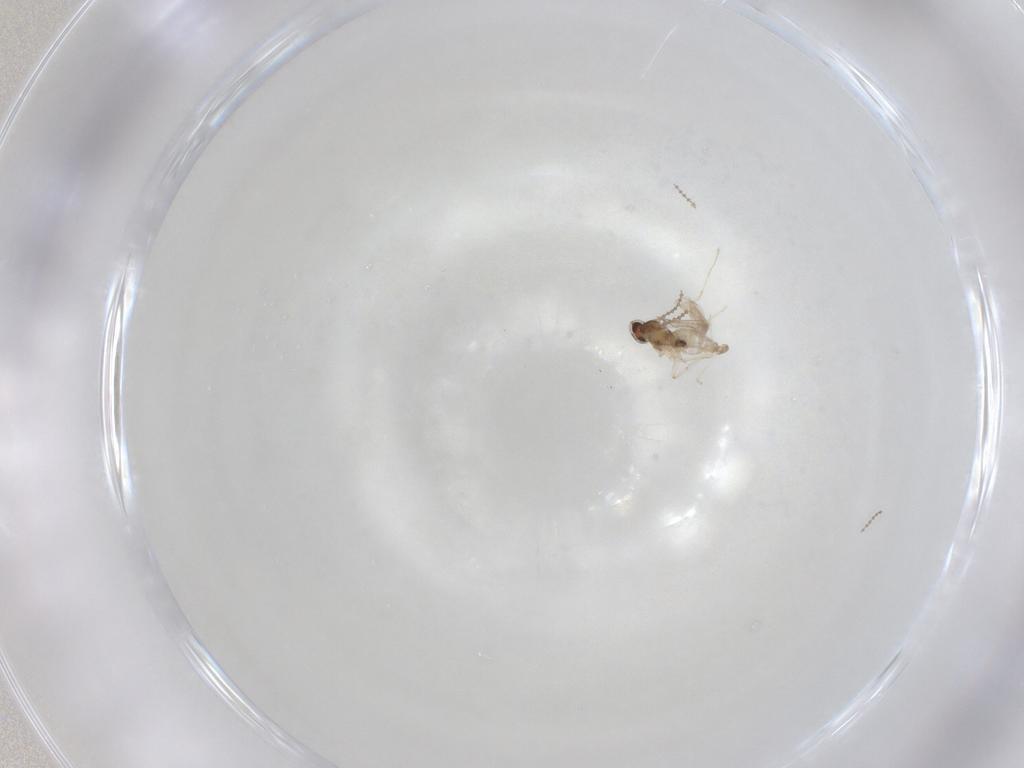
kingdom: Animalia
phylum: Arthropoda
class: Insecta
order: Diptera
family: Cecidomyiidae
